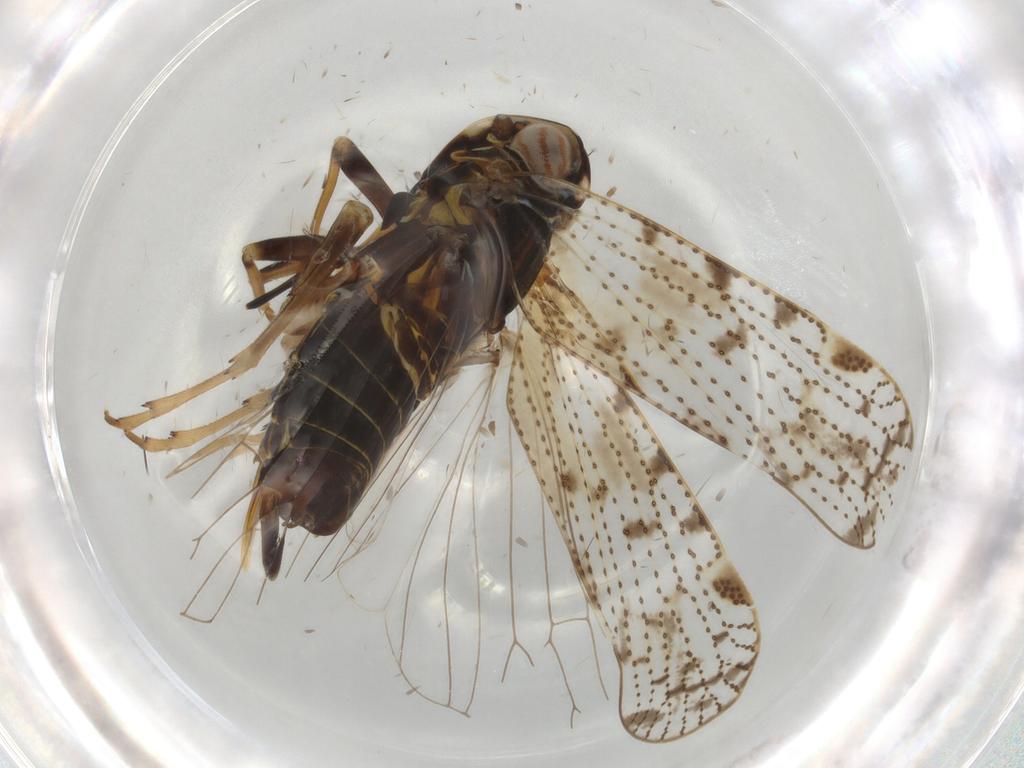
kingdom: Animalia
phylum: Arthropoda
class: Insecta
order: Hemiptera
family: Cixiidae
